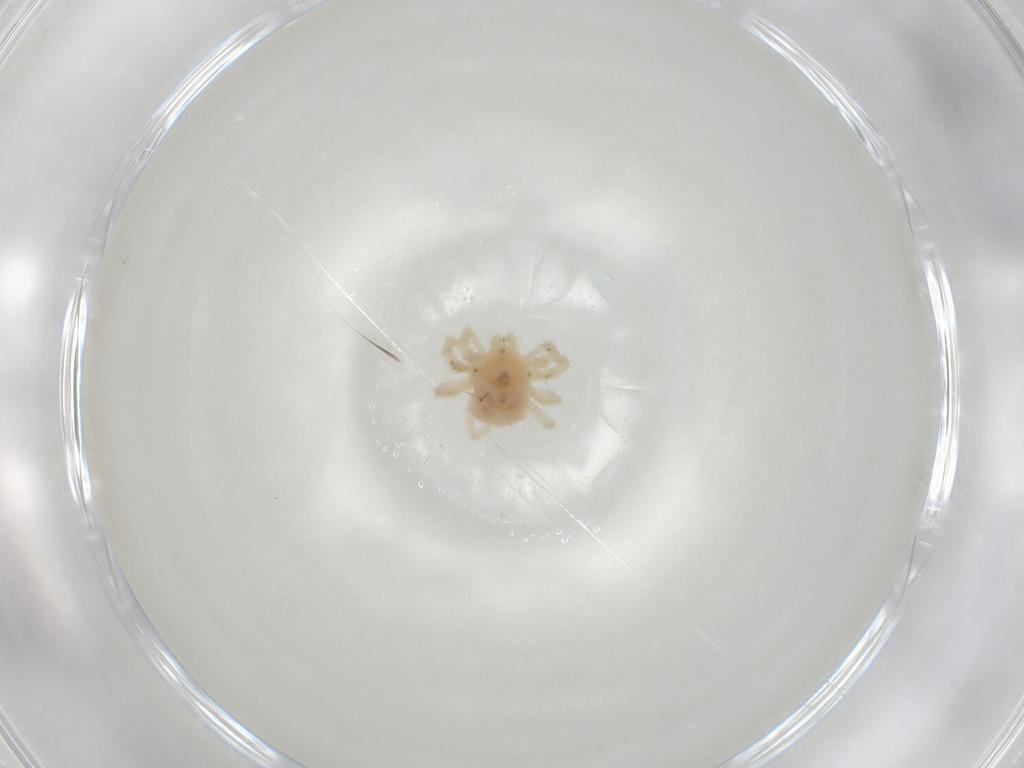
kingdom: Animalia
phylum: Arthropoda
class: Arachnida
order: Trombidiformes
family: Anystidae
